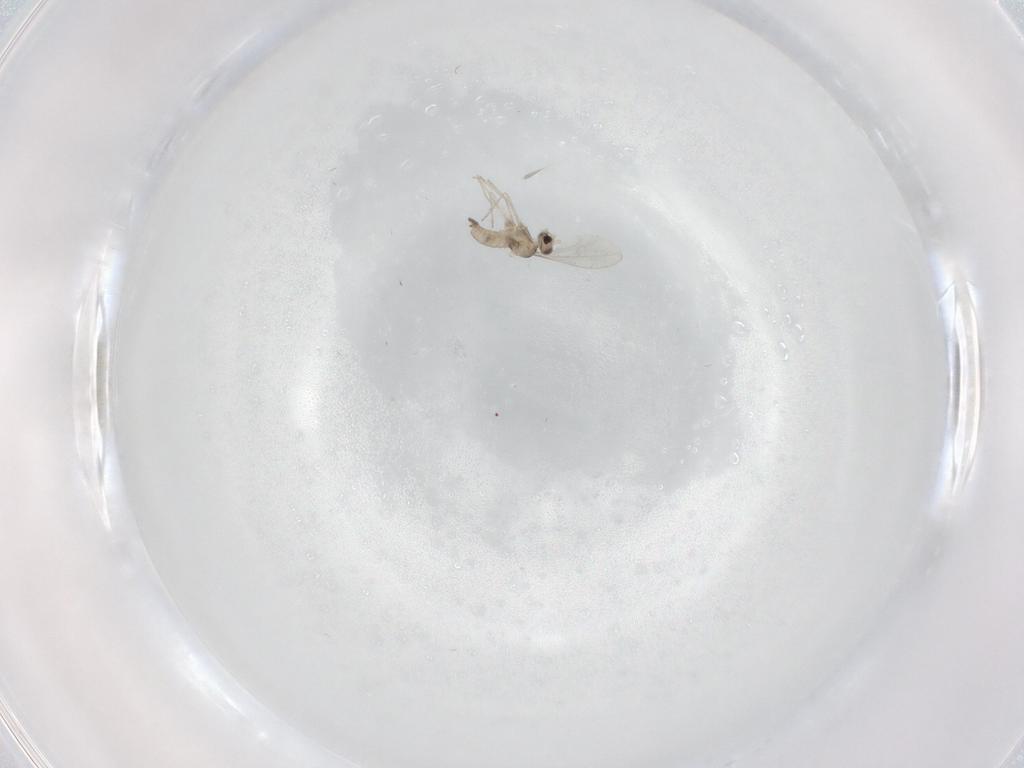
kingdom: Animalia
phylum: Arthropoda
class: Insecta
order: Diptera
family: Cecidomyiidae
